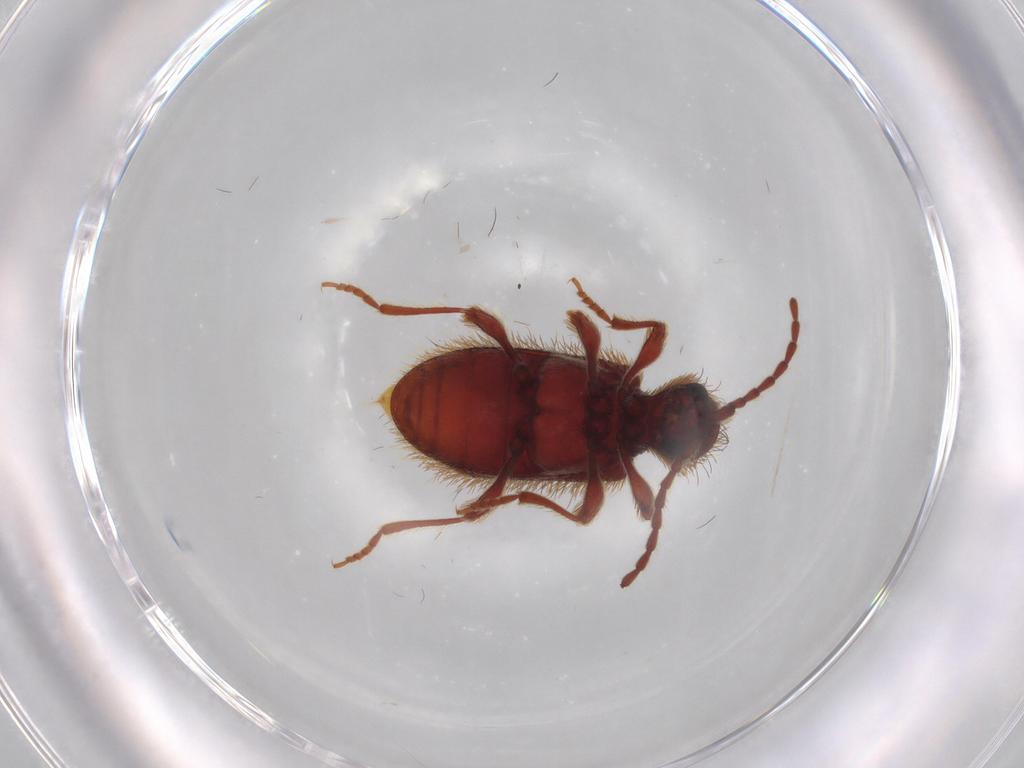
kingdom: Animalia
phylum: Arthropoda
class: Insecta
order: Coleoptera
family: Ptinidae
